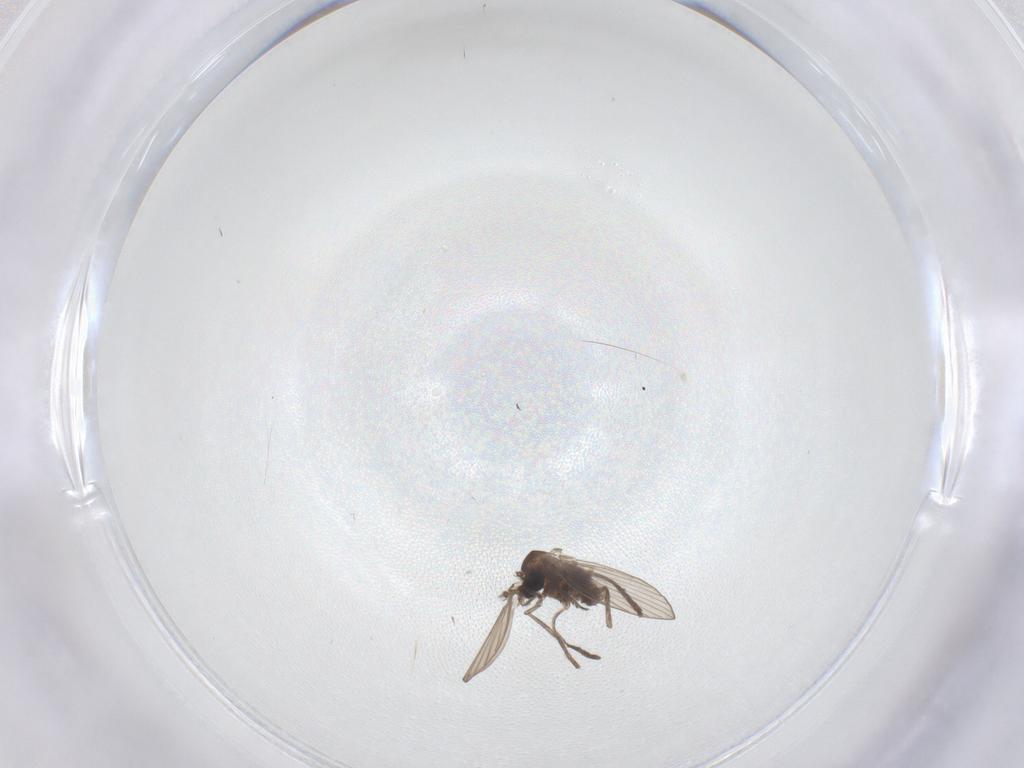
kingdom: Animalia
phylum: Arthropoda
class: Insecta
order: Diptera
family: Psychodidae
